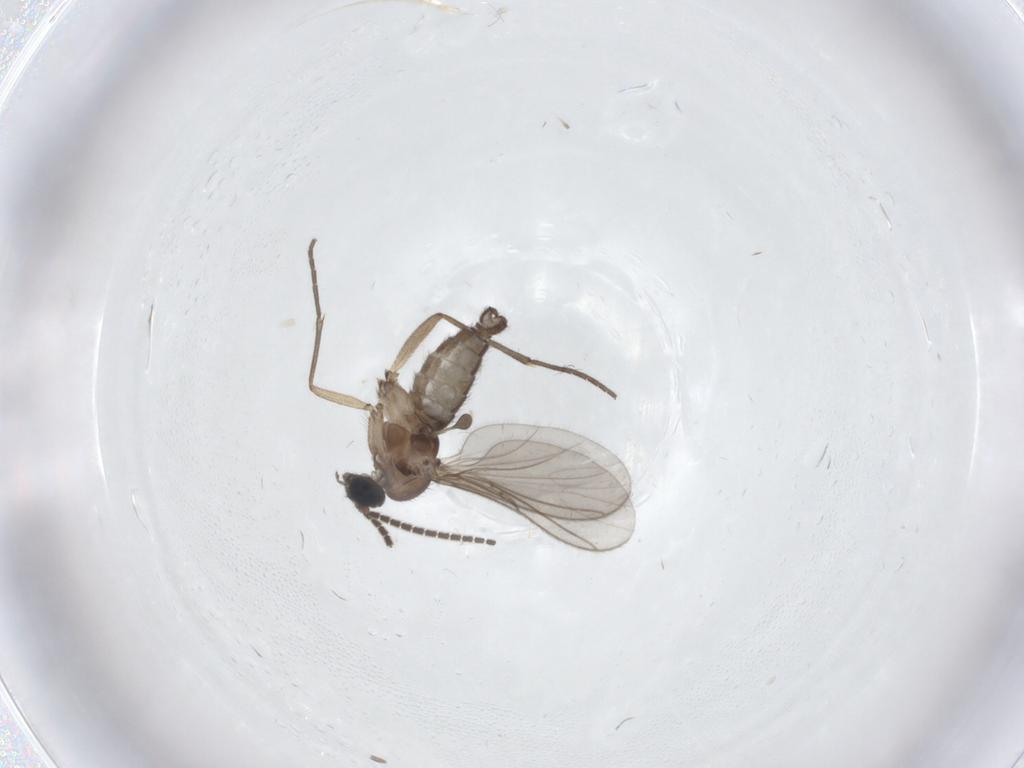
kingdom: Animalia
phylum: Arthropoda
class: Insecta
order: Diptera
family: Sciaridae
